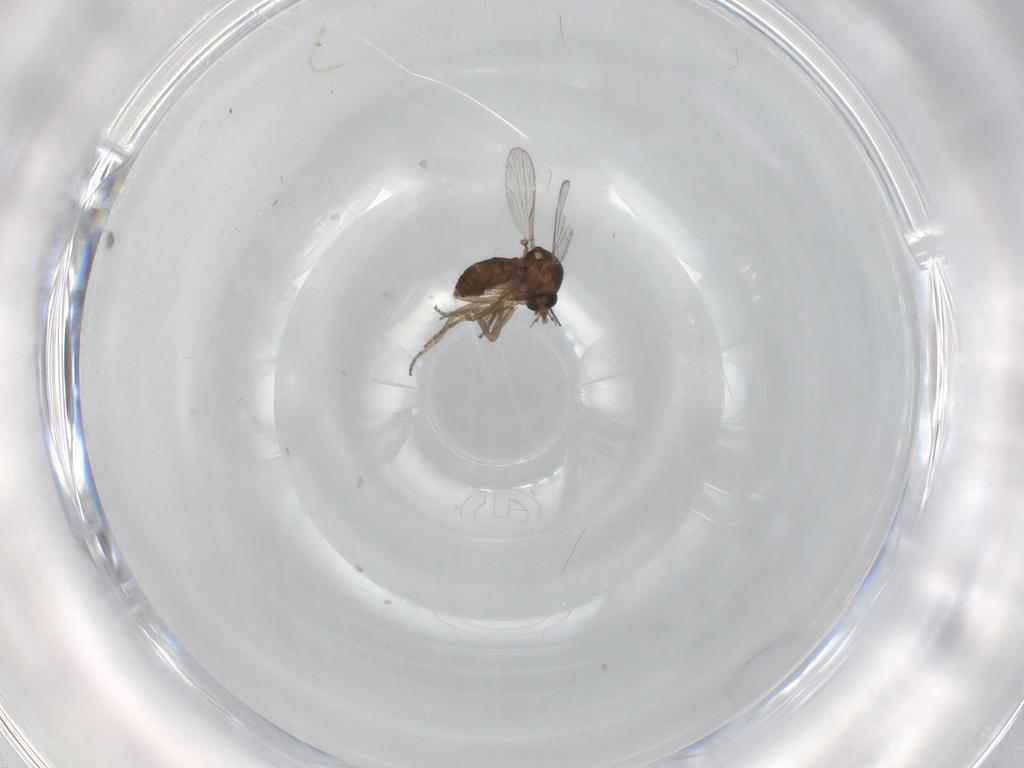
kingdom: Animalia
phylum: Arthropoda
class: Insecta
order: Diptera
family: Ceratopogonidae
